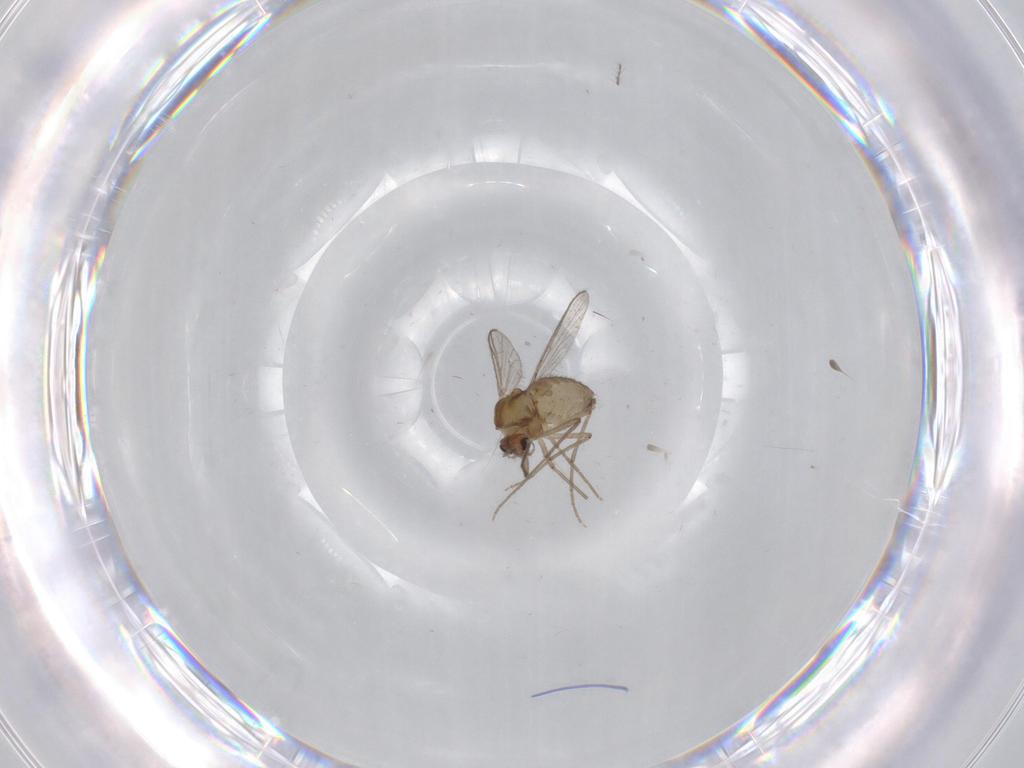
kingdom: Animalia
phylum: Arthropoda
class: Insecta
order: Diptera
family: Chironomidae
